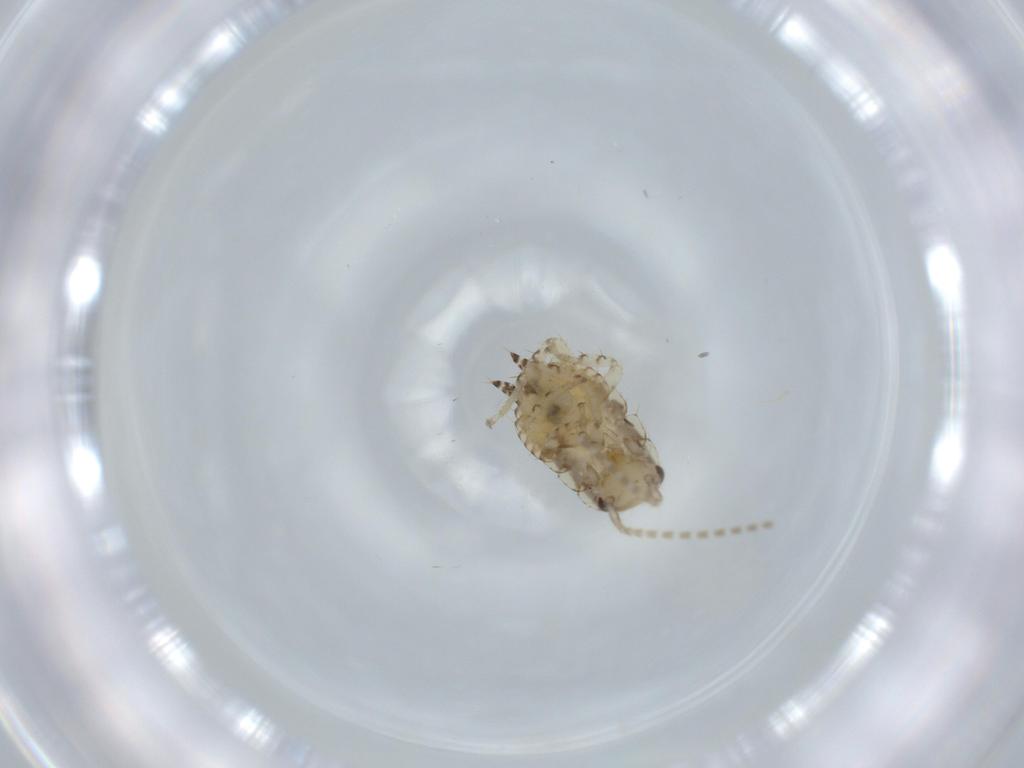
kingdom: Animalia
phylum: Arthropoda
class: Insecta
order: Blattodea
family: Ectobiidae
